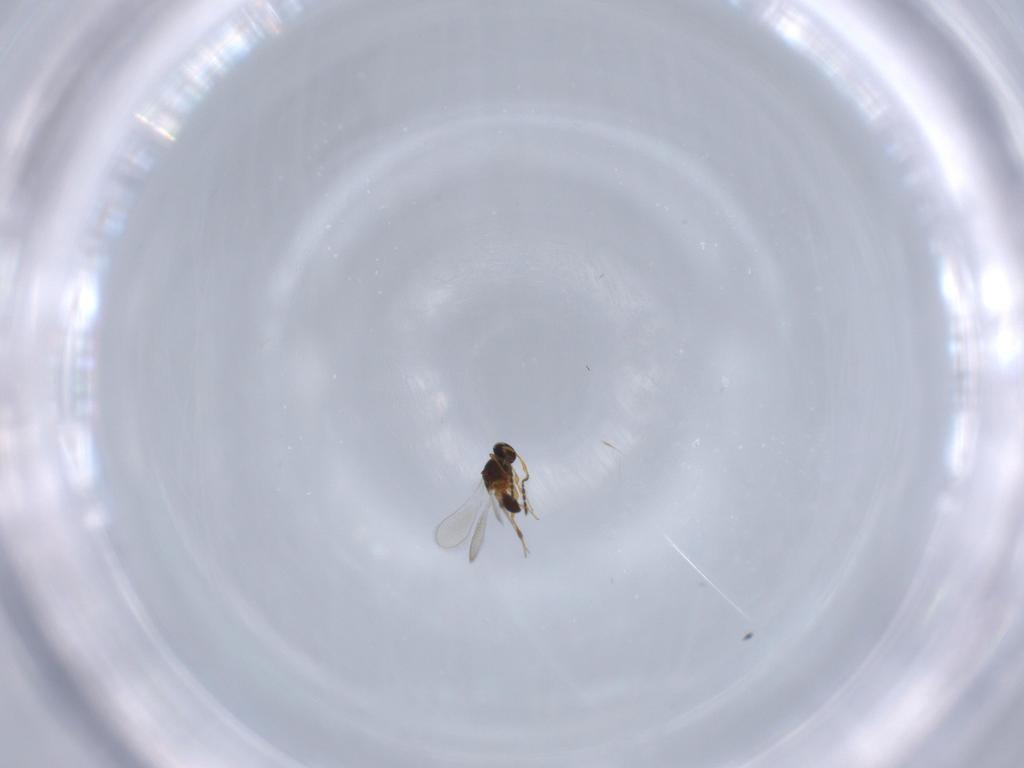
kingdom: Animalia
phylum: Arthropoda
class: Insecta
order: Hymenoptera
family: Platygastridae
